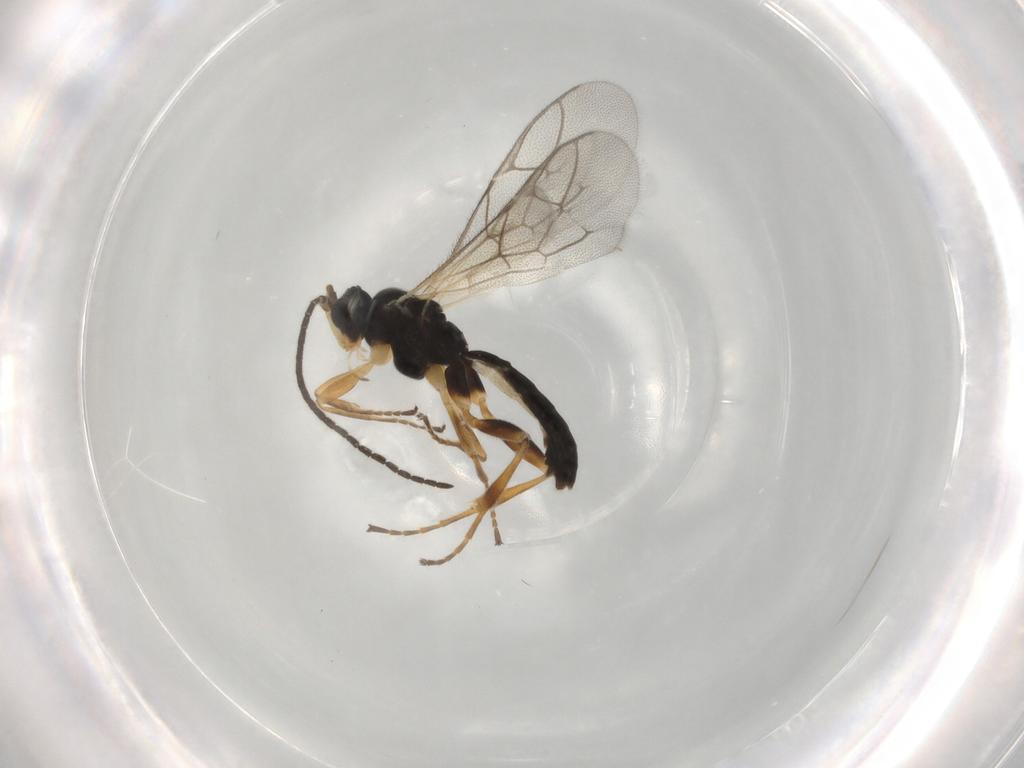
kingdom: Animalia
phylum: Arthropoda
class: Insecta
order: Hymenoptera
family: Ichneumonidae
